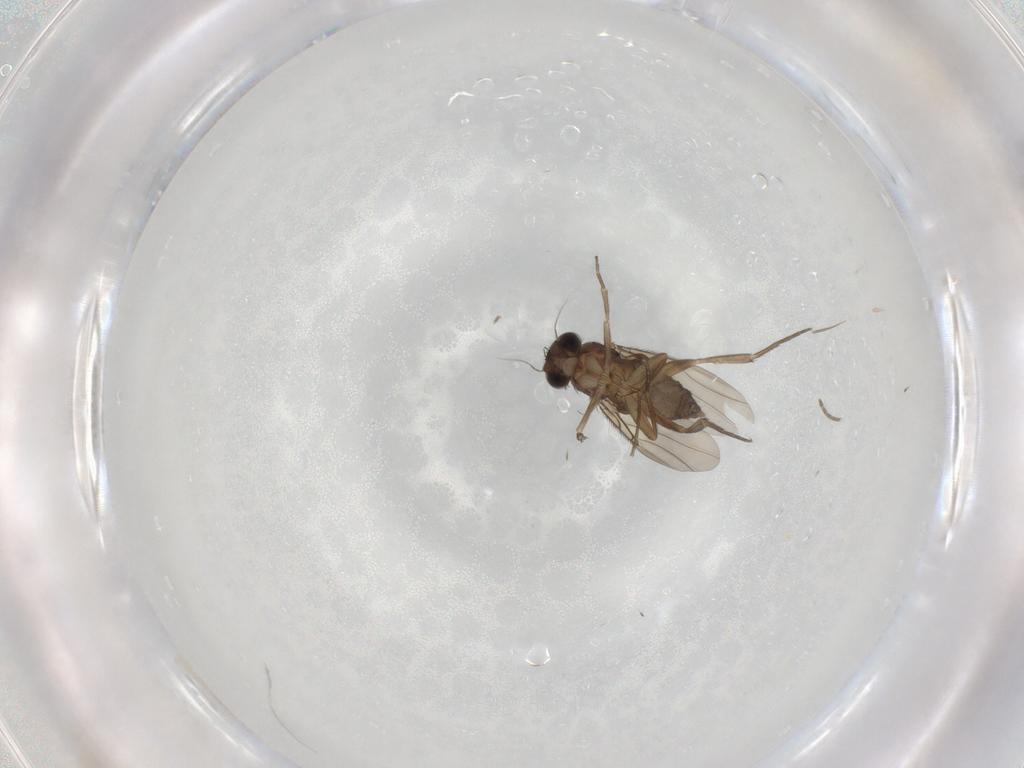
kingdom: Animalia
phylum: Arthropoda
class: Insecta
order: Diptera
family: Phoridae
